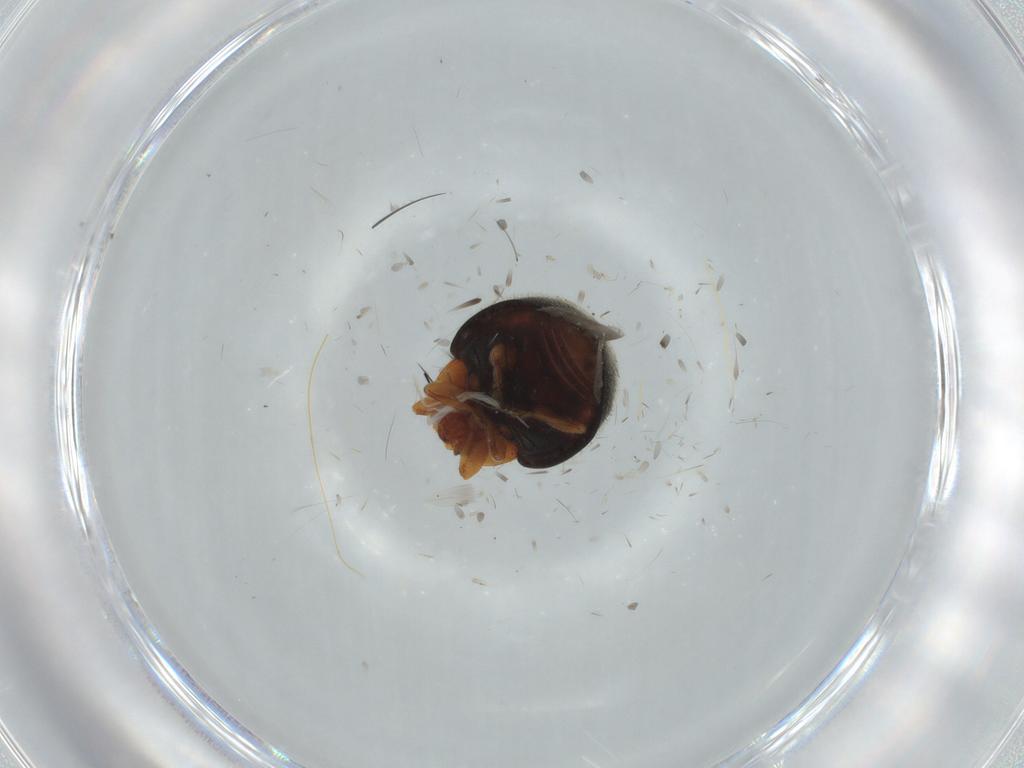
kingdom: Animalia
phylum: Arthropoda
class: Insecta
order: Coleoptera
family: Coccinellidae
